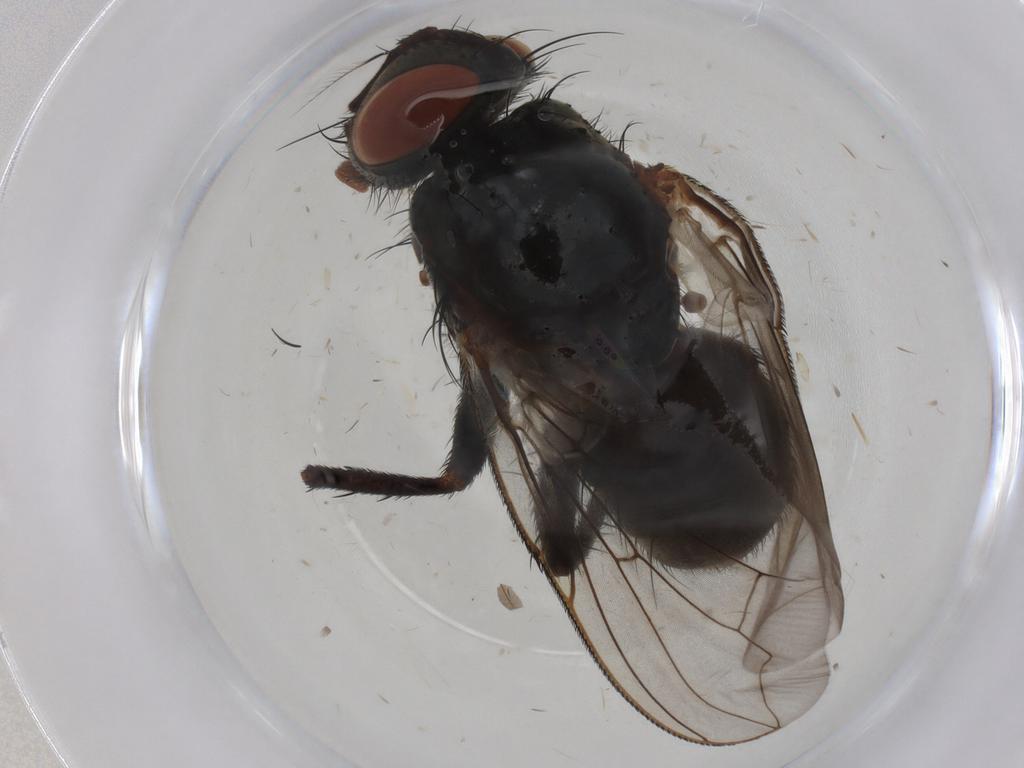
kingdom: Animalia
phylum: Arthropoda
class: Insecta
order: Diptera
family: Sarcophagidae
